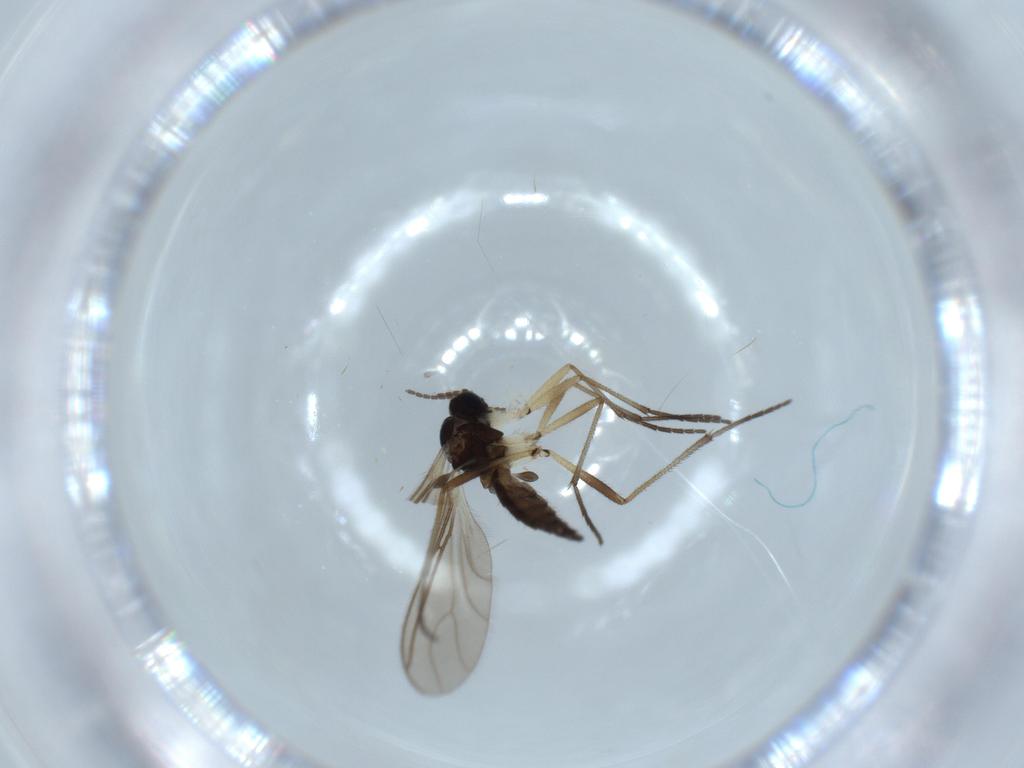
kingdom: Animalia
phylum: Arthropoda
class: Insecta
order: Diptera
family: Sciaridae
